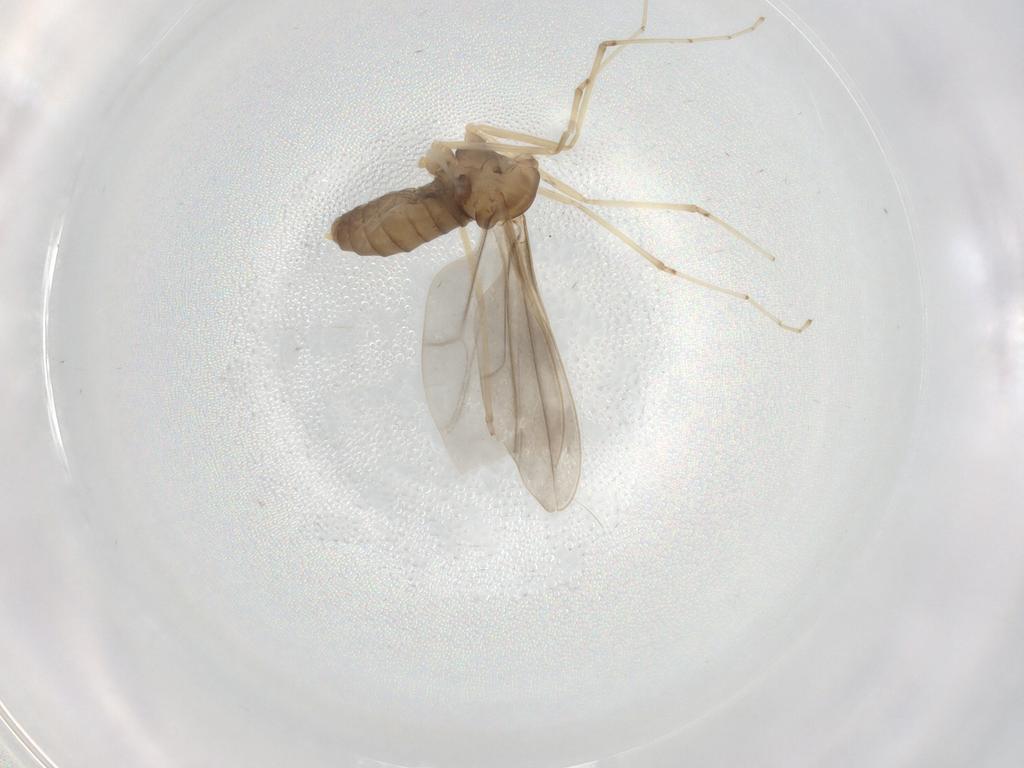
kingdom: Animalia
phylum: Arthropoda
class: Insecta
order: Diptera
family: Cecidomyiidae
